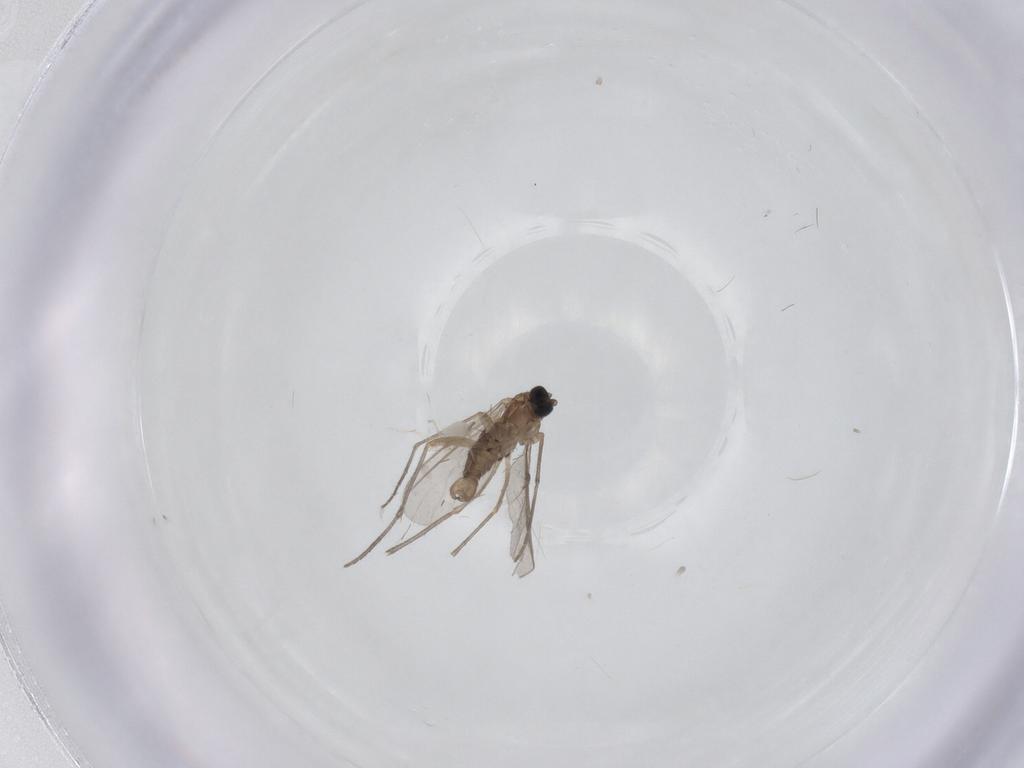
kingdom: Animalia
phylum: Arthropoda
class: Insecta
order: Diptera
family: Sciaridae
